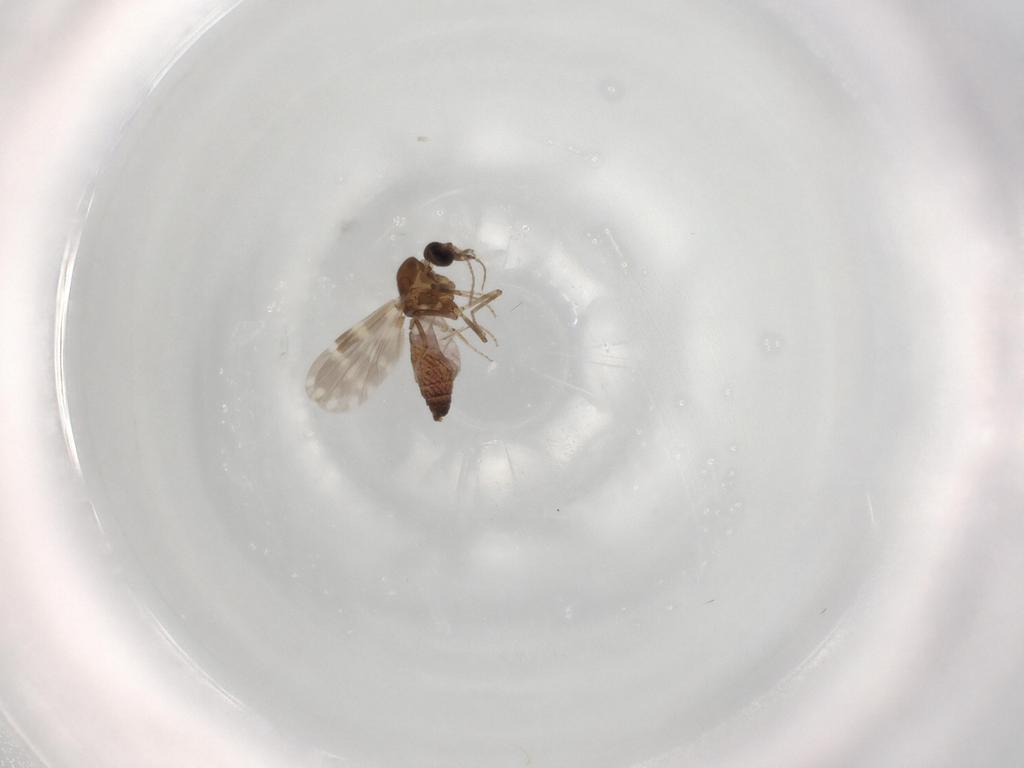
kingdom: Animalia
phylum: Arthropoda
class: Insecta
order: Diptera
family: Ceratopogonidae
